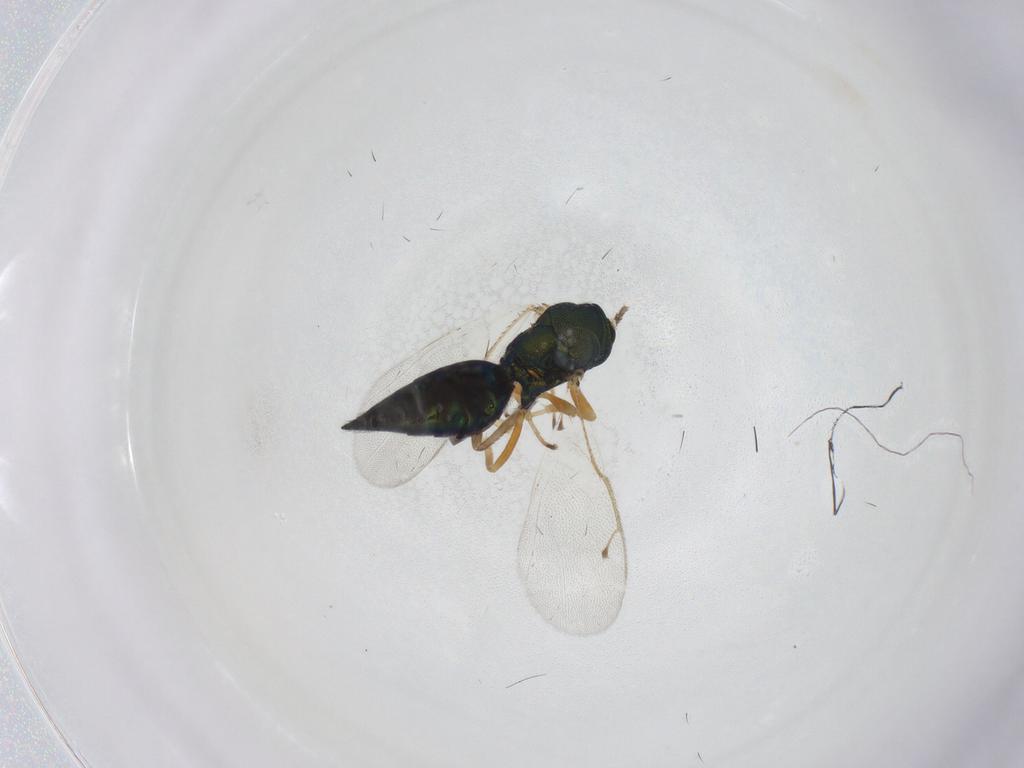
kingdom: Animalia
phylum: Arthropoda
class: Insecta
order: Hymenoptera
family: Pteromalidae
